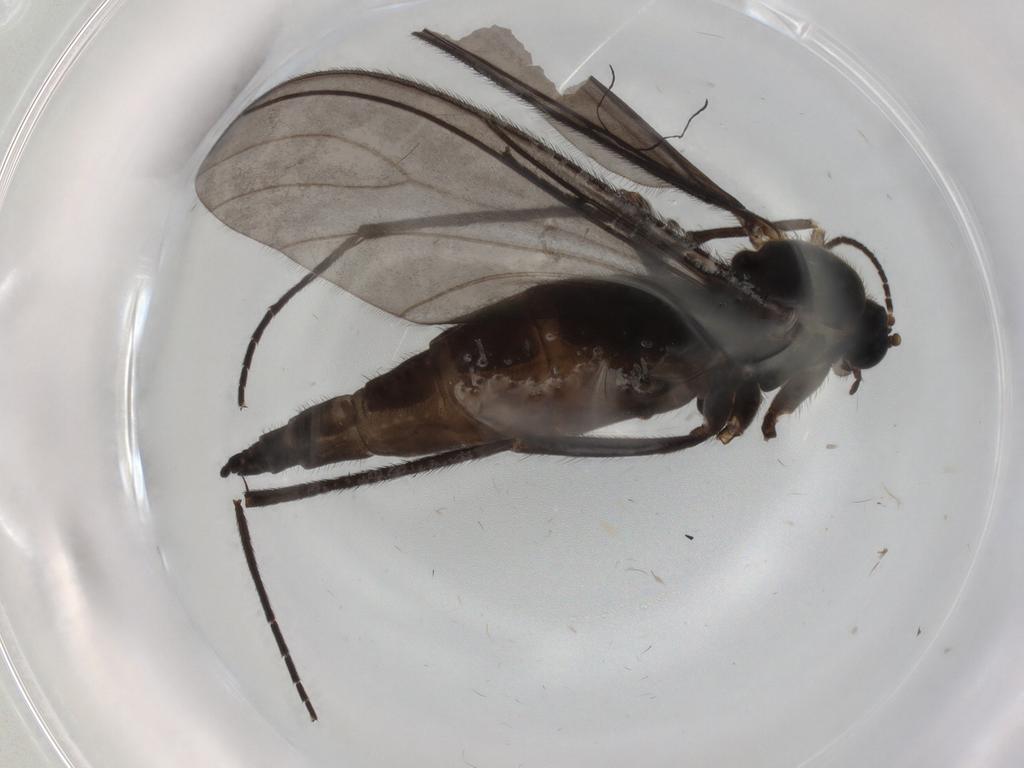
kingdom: Animalia
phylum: Arthropoda
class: Insecta
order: Diptera
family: Sciaridae
